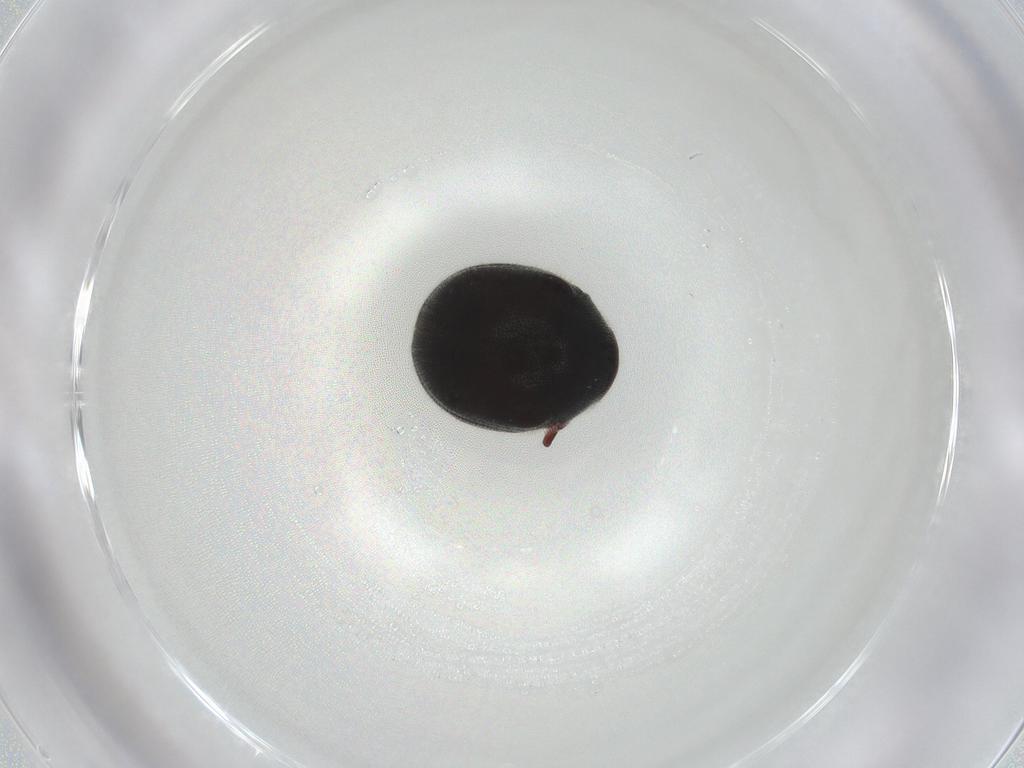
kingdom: Animalia
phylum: Arthropoda
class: Insecta
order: Coleoptera
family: Ptinidae
